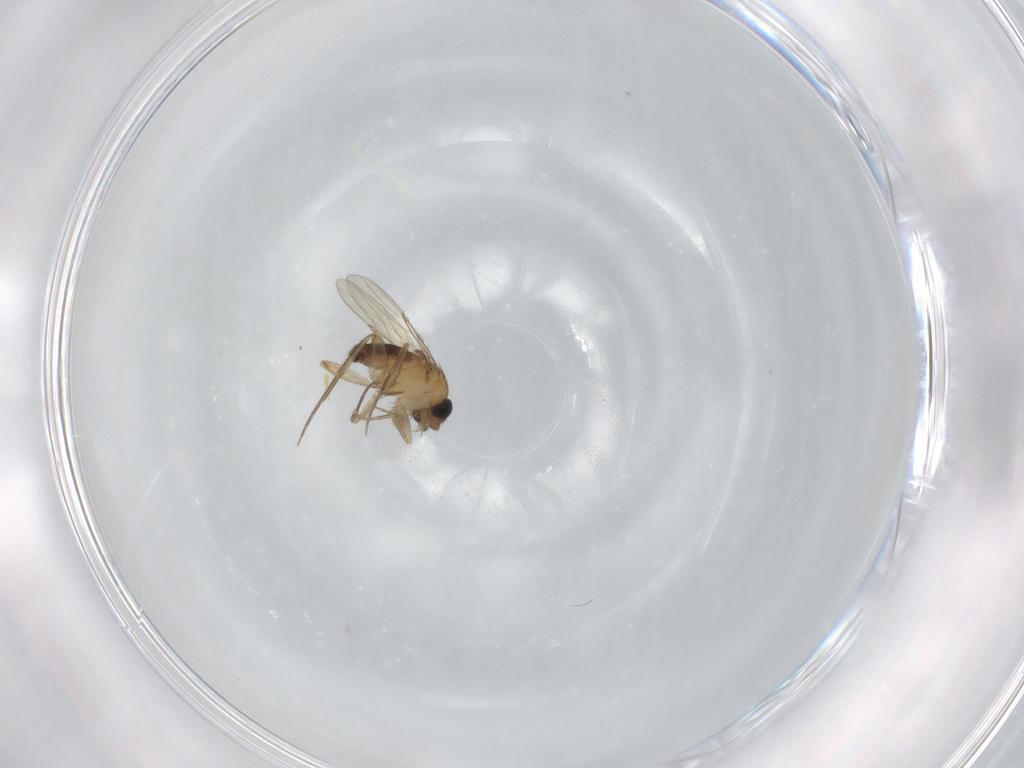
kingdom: Animalia
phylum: Arthropoda
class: Insecta
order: Diptera
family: Phoridae
